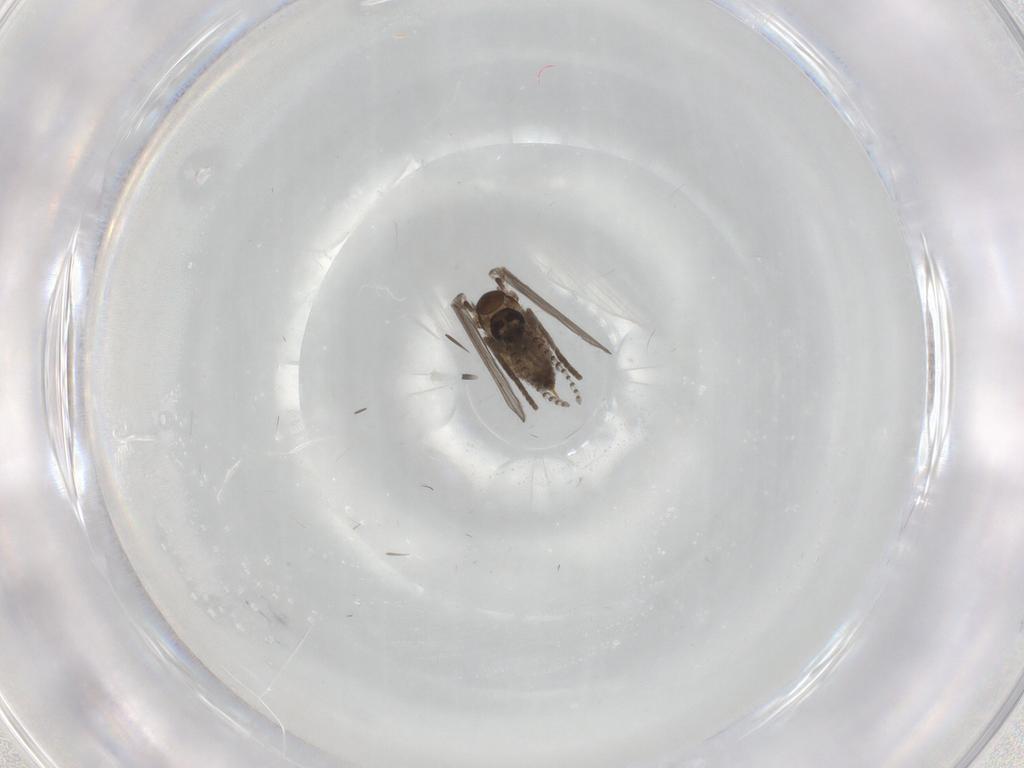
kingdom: Animalia
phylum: Arthropoda
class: Insecta
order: Diptera
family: Psychodidae
